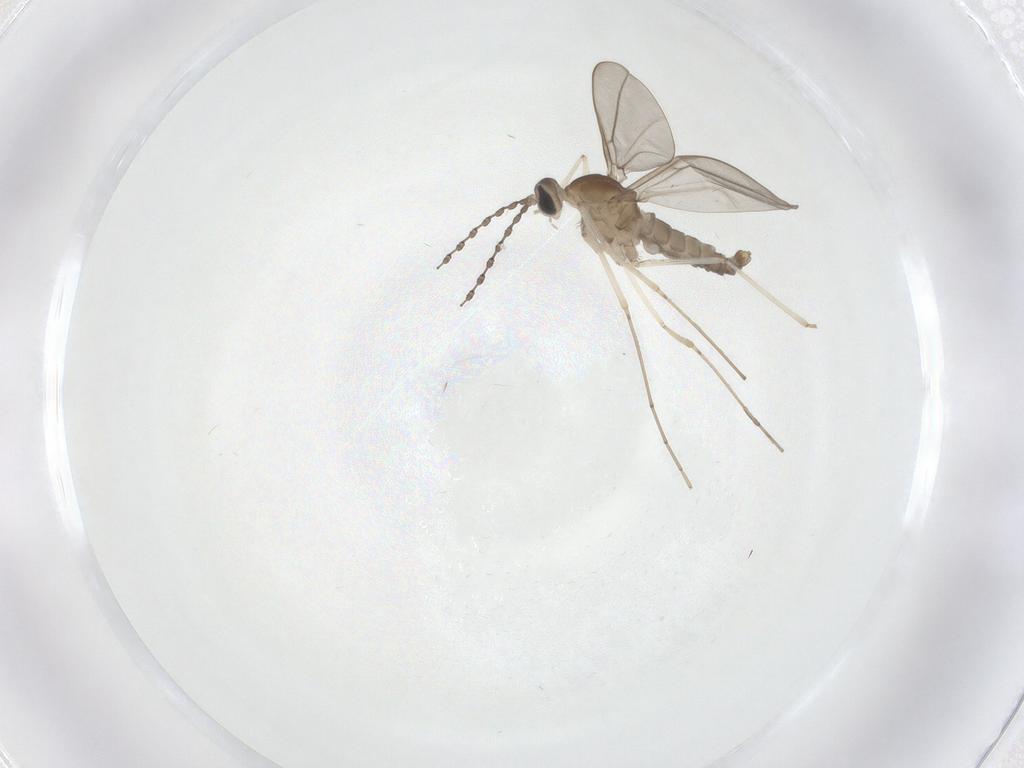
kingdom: Animalia
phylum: Arthropoda
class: Insecta
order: Diptera
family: Cecidomyiidae
